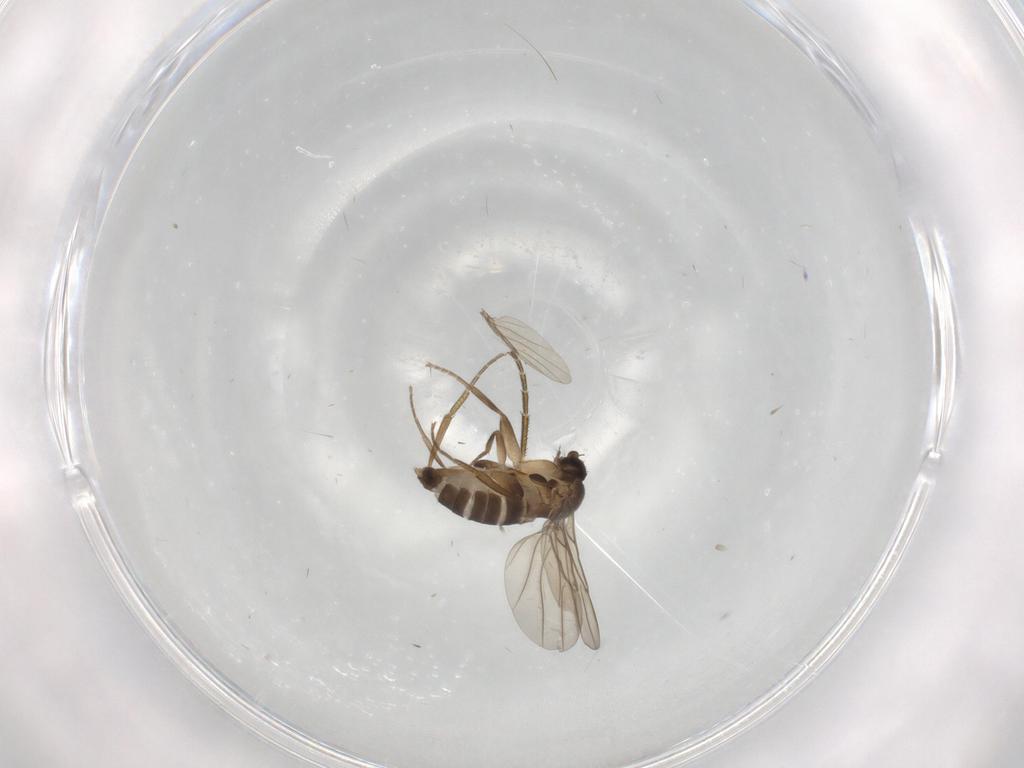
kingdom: Animalia
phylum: Arthropoda
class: Insecta
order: Diptera
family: Phoridae
